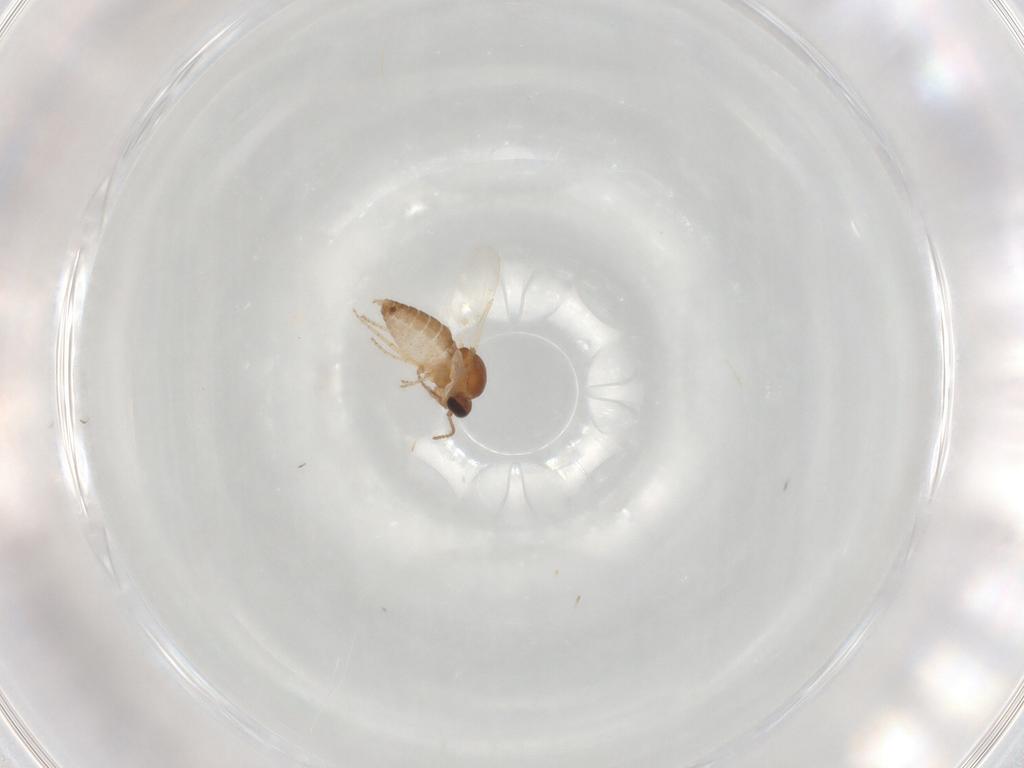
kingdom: Animalia
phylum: Arthropoda
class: Insecta
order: Diptera
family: Ceratopogonidae
